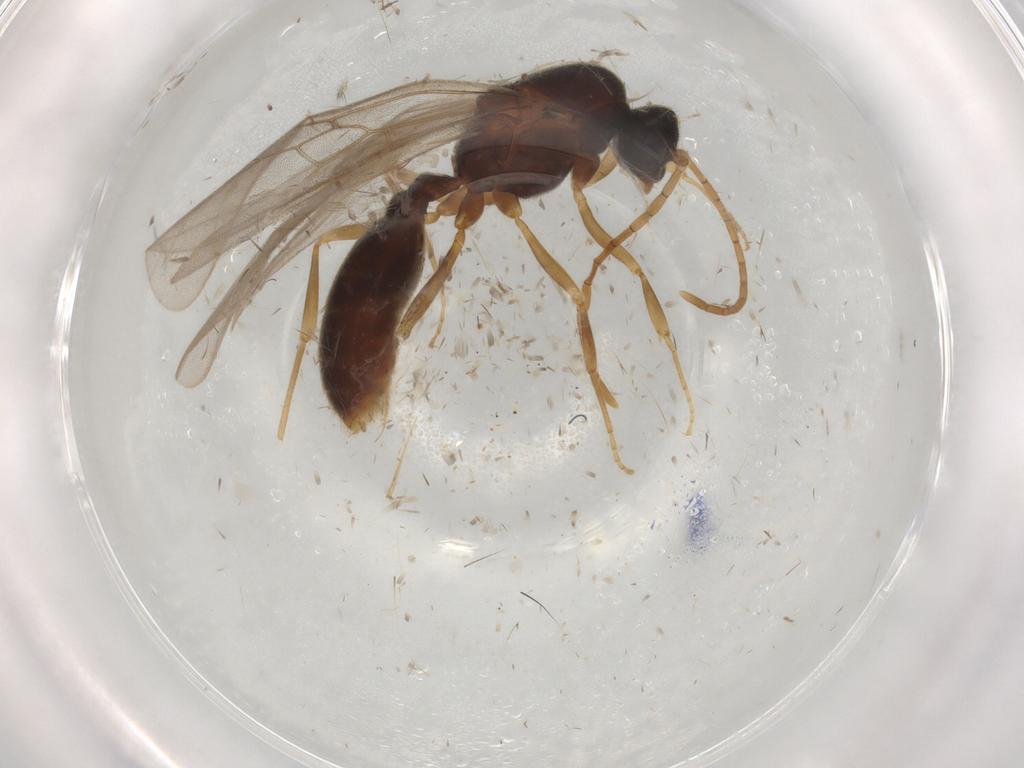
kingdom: Animalia
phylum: Arthropoda
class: Insecta
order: Hymenoptera
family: Formicidae
